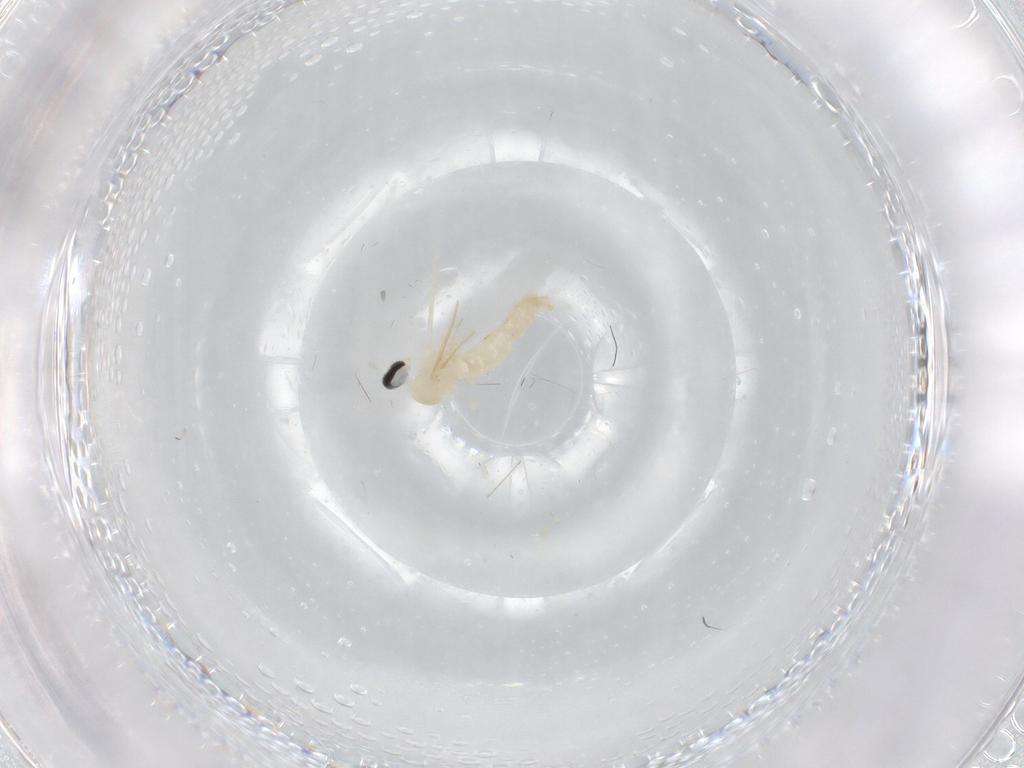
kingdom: Animalia
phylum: Arthropoda
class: Insecta
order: Diptera
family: Cecidomyiidae
